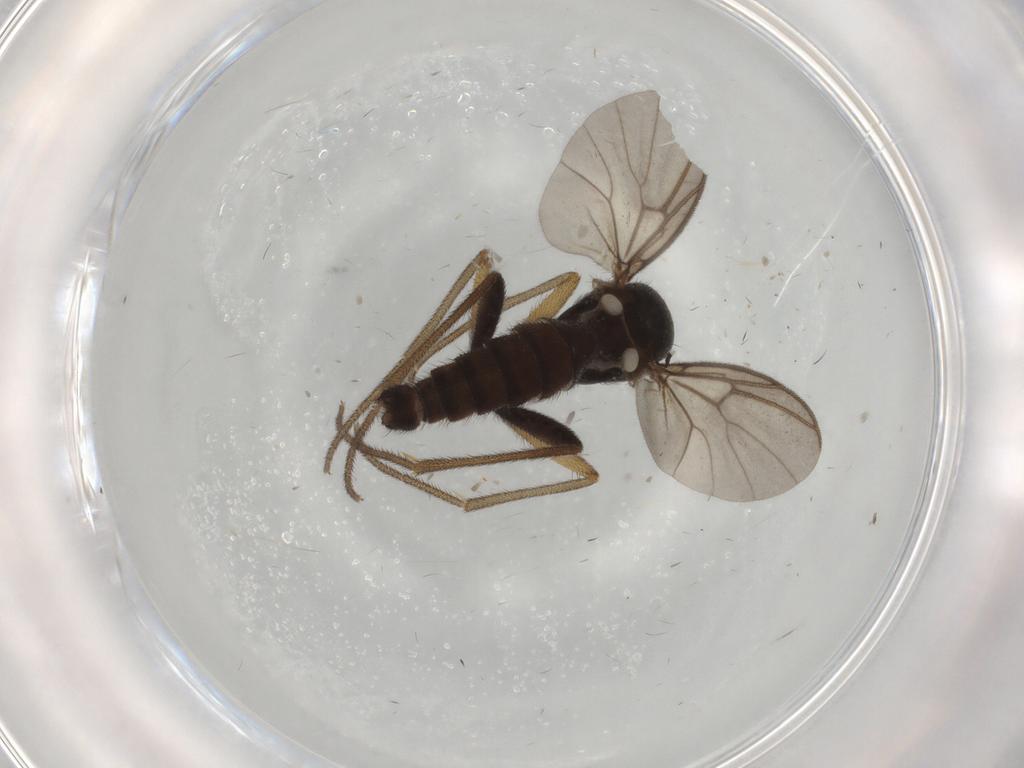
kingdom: Animalia
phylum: Arthropoda
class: Insecta
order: Diptera
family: Mycetophilidae
